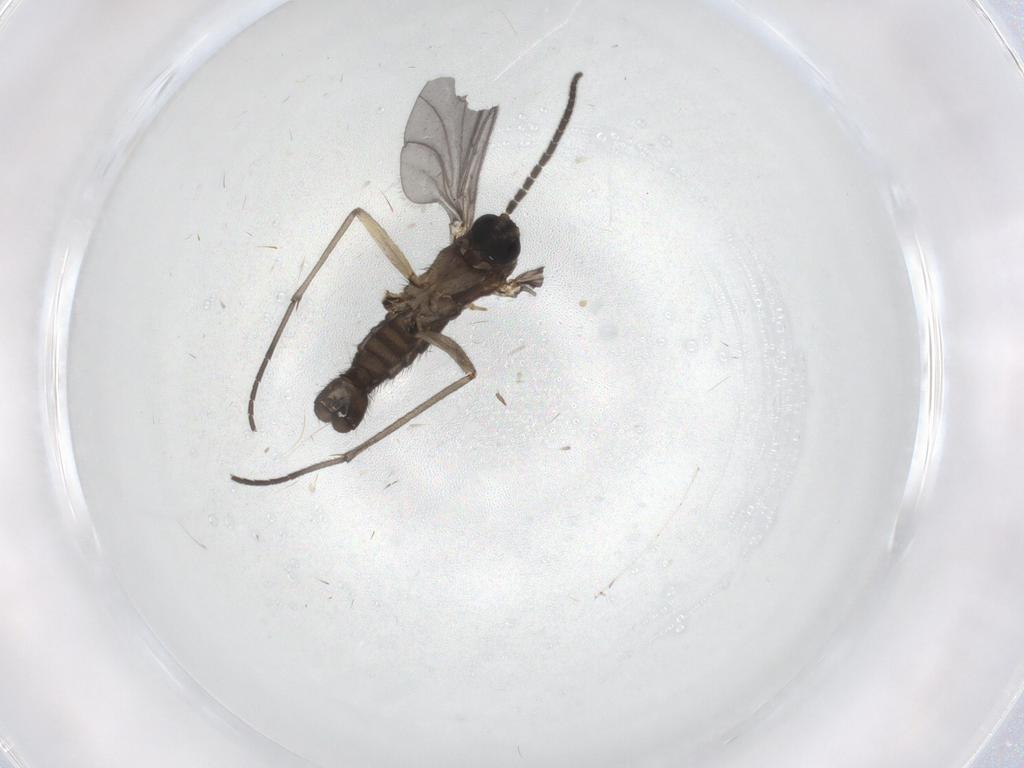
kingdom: Animalia
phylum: Arthropoda
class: Insecta
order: Diptera
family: Sciaridae
